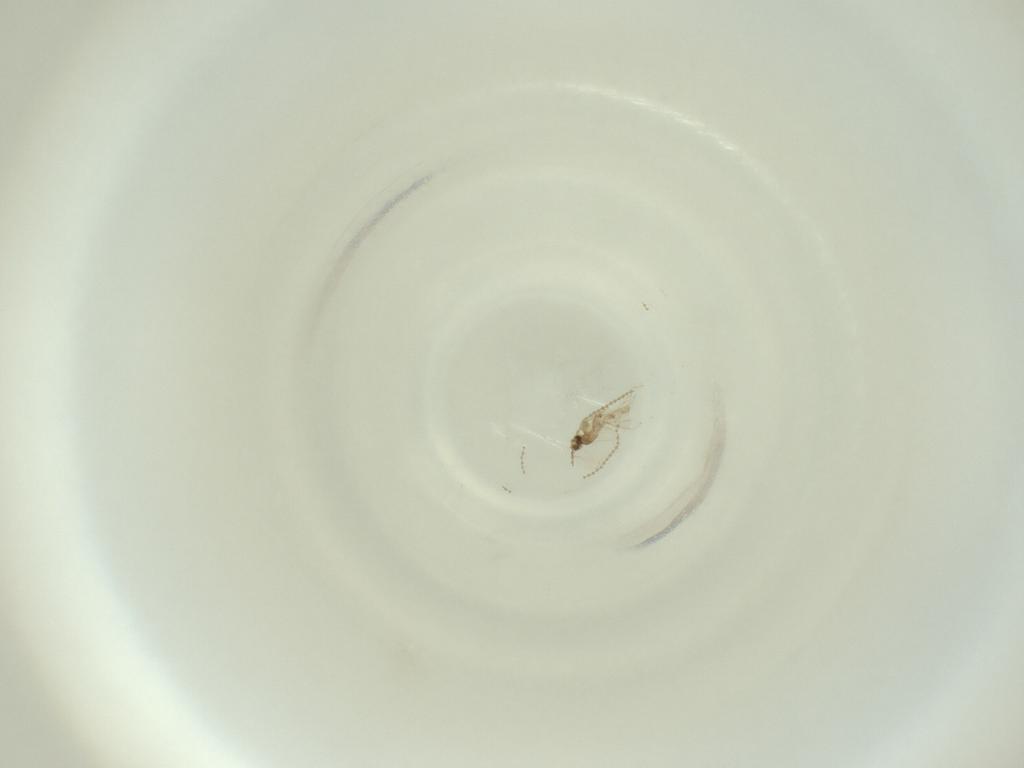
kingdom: Animalia
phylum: Arthropoda
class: Insecta
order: Diptera
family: Cecidomyiidae
